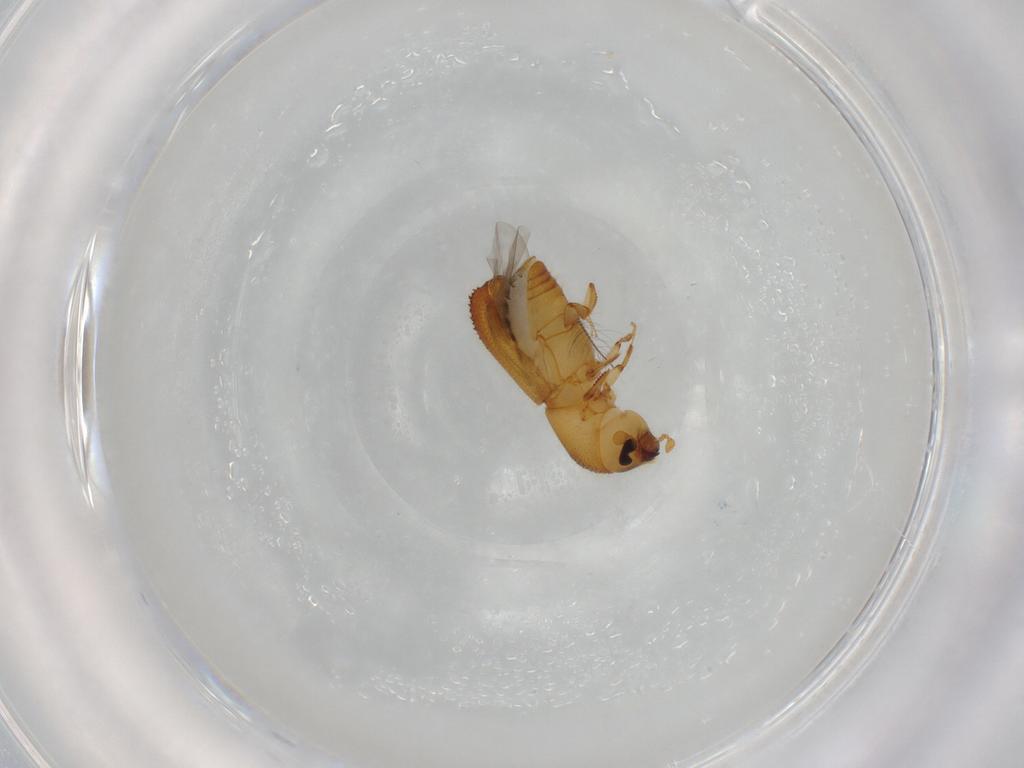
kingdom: Animalia
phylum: Arthropoda
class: Insecta
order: Coleoptera
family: Curculionidae
